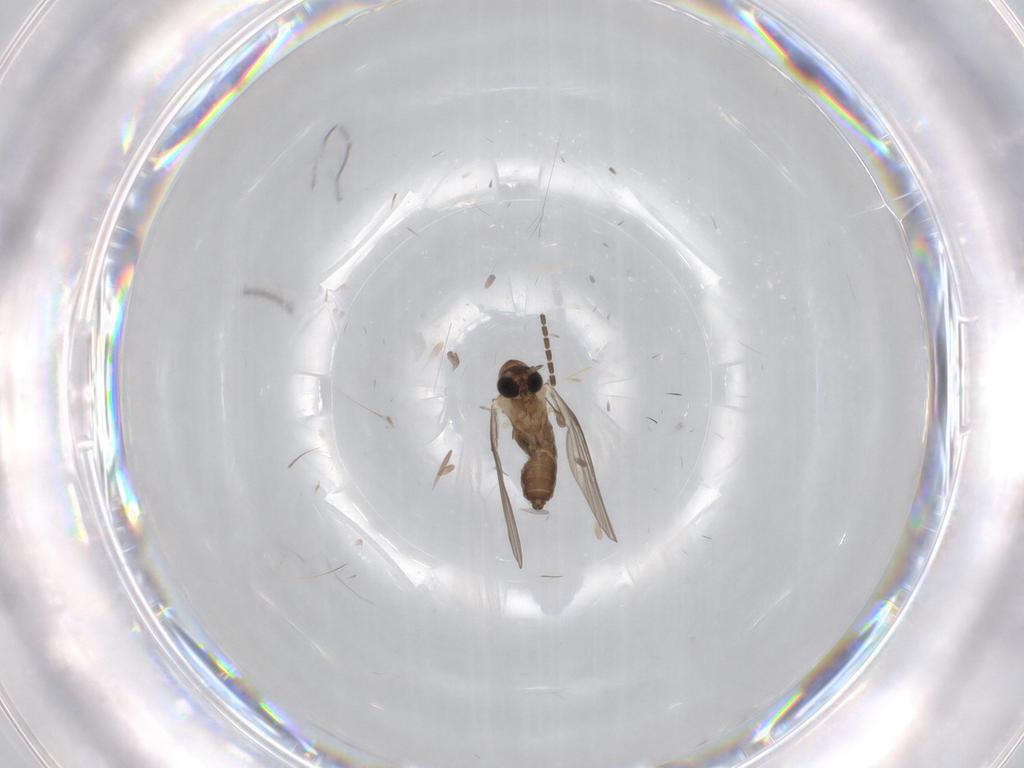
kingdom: Animalia
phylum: Arthropoda
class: Insecta
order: Diptera
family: Sciaridae
